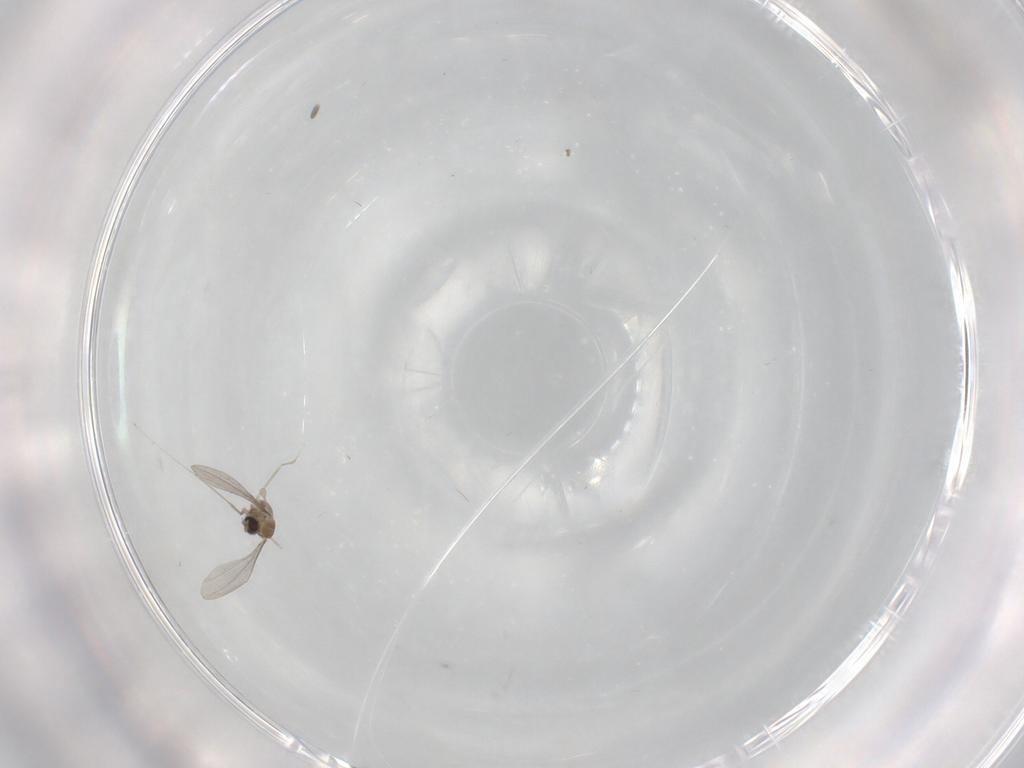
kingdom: Animalia
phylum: Arthropoda
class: Insecta
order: Diptera
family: Cecidomyiidae
